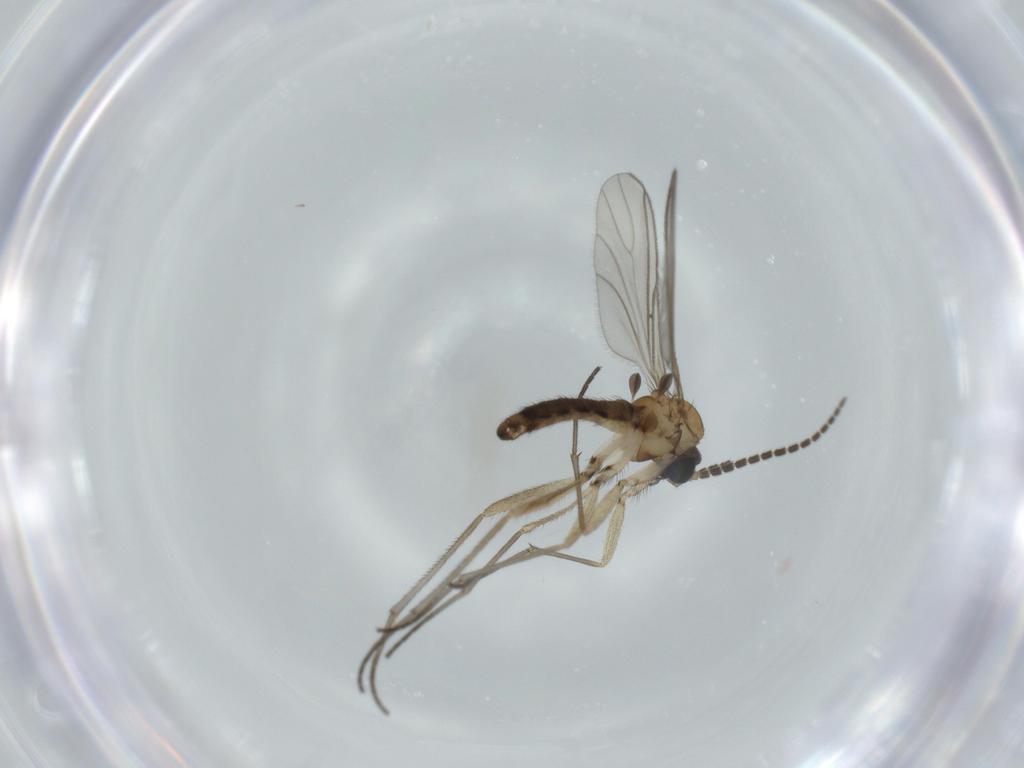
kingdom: Animalia
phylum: Arthropoda
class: Insecta
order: Diptera
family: Sciaridae
